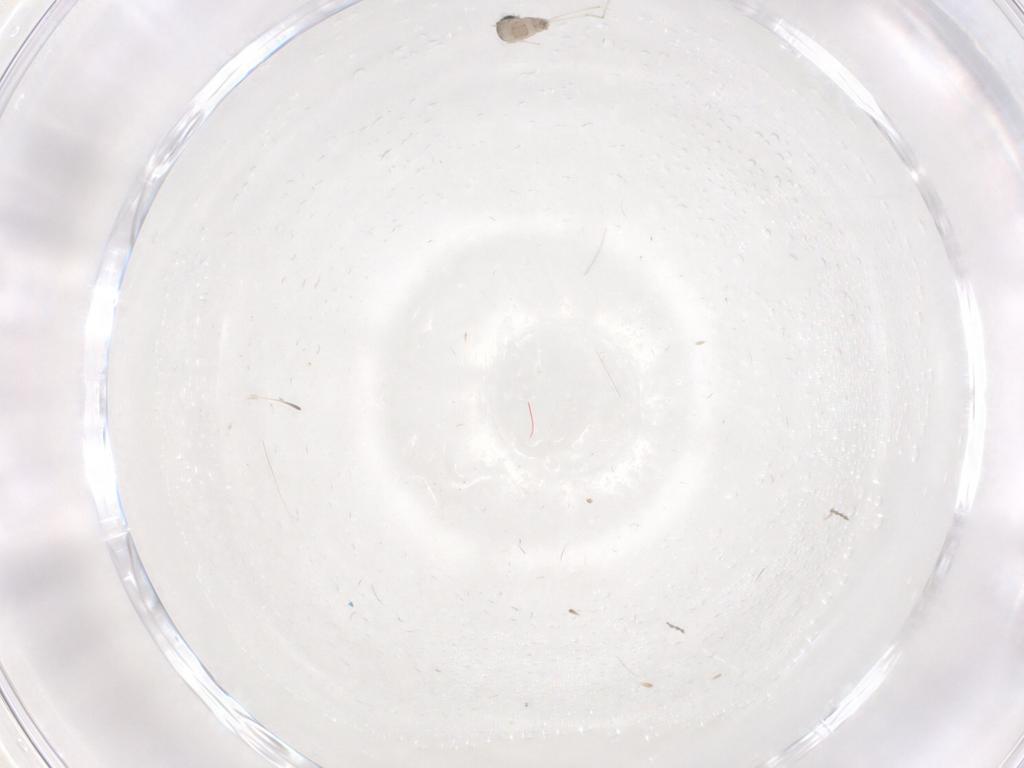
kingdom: Animalia
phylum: Arthropoda
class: Insecta
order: Diptera
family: Cecidomyiidae
